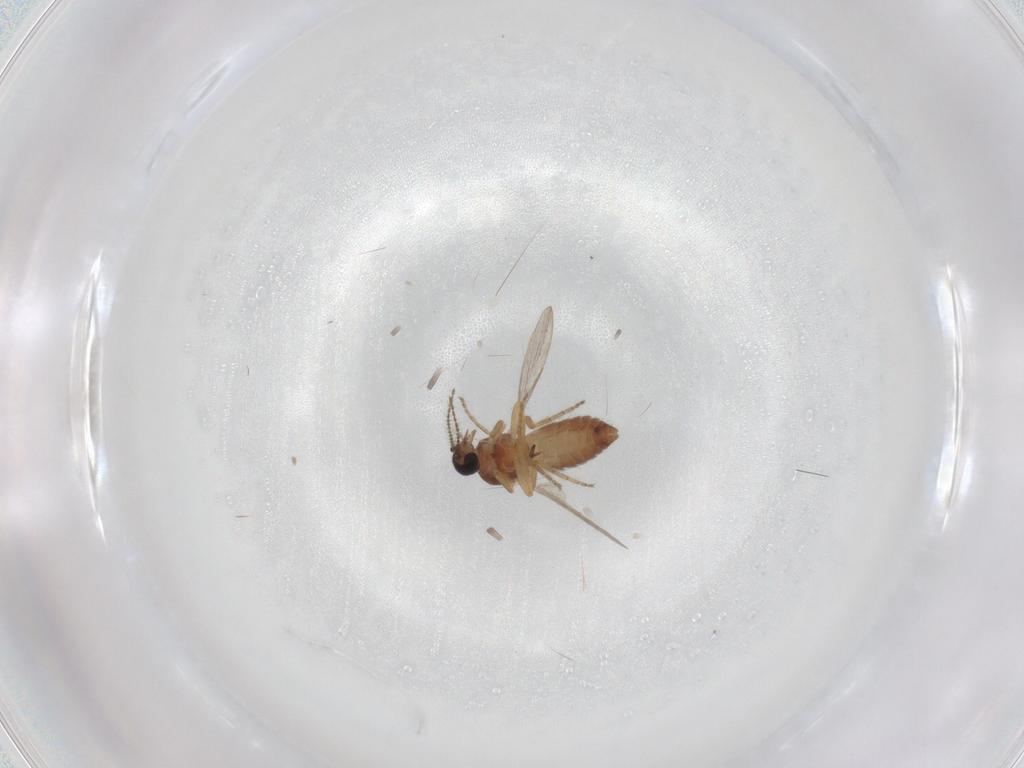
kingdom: Animalia
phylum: Arthropoda
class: Insecta
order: Diptera
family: Ceratopogonidae
